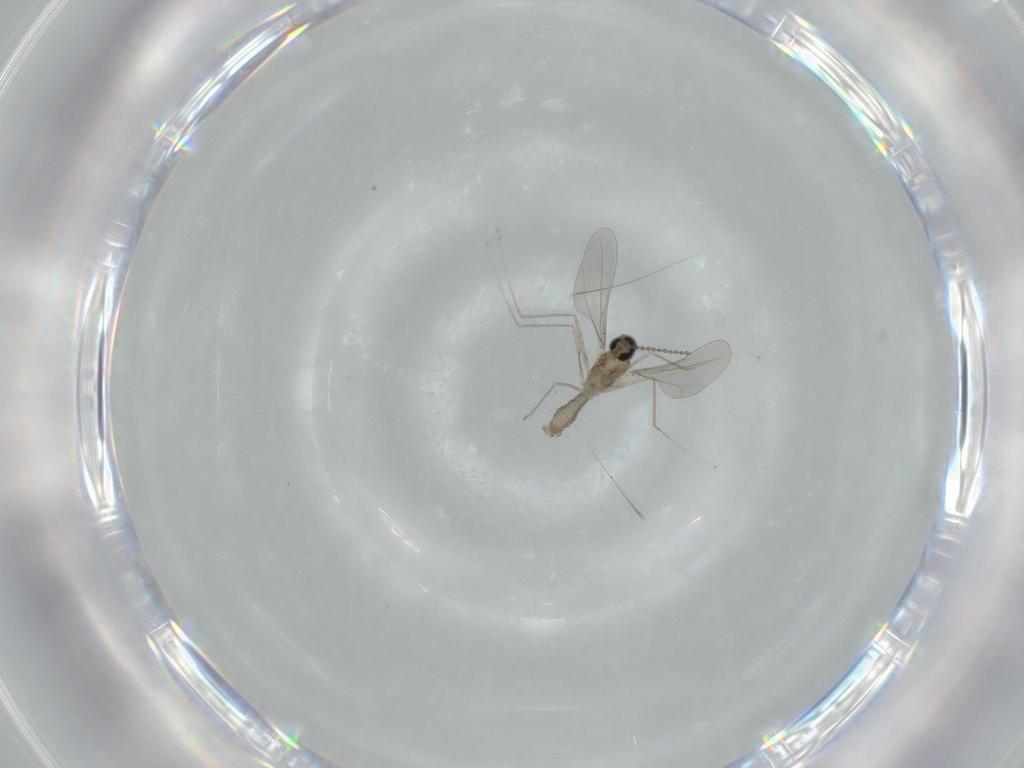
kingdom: Animalia
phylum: Arthropoda
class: Insecta
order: Diptera
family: Cecidomyiidae
